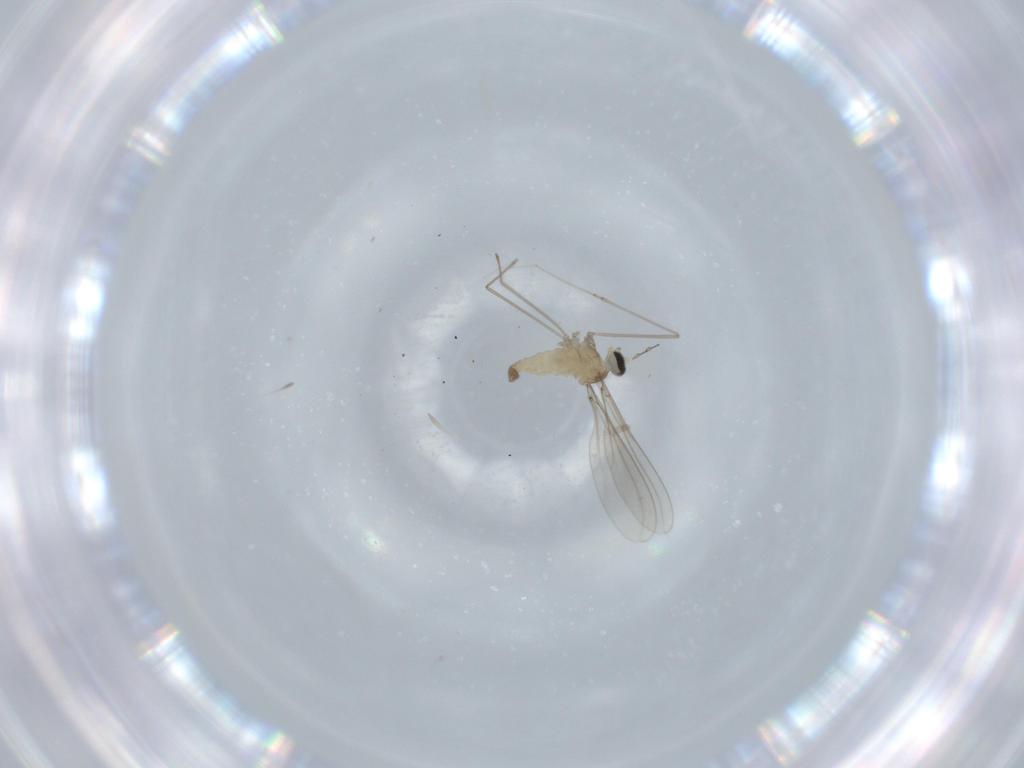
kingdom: Animalia
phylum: Arthropoda
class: Insecta
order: Diptera
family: Cecidomyiidae
